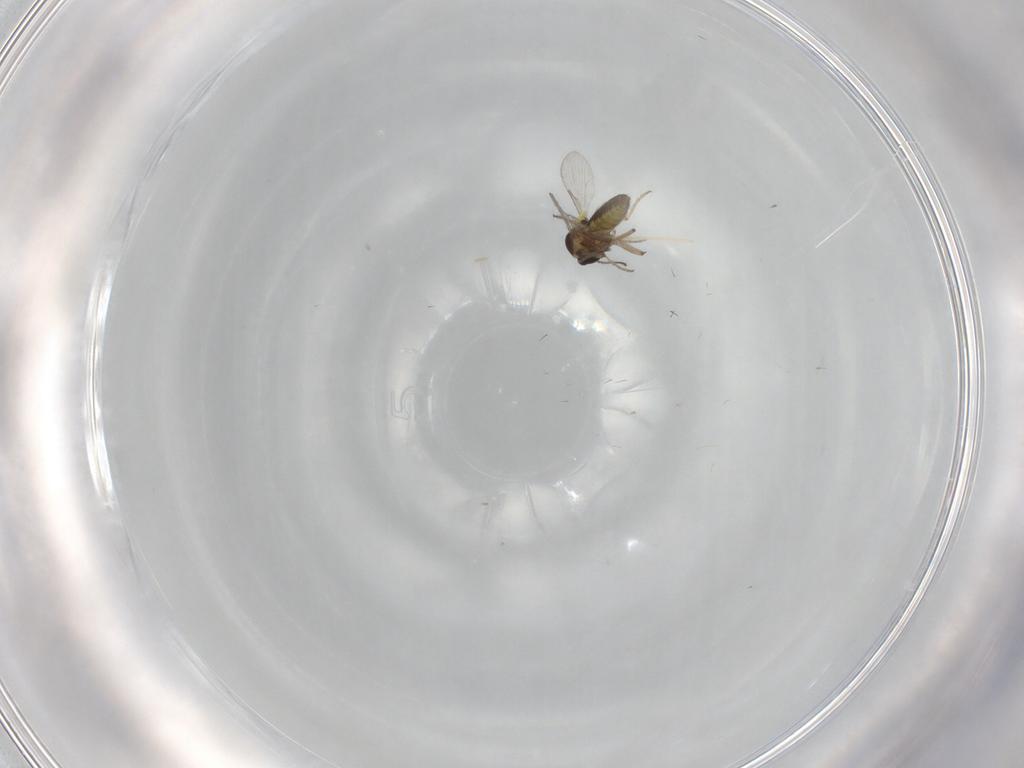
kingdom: Animalia
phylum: Arthropoda
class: Insecta
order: Diptera
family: Ceratopogonidae
